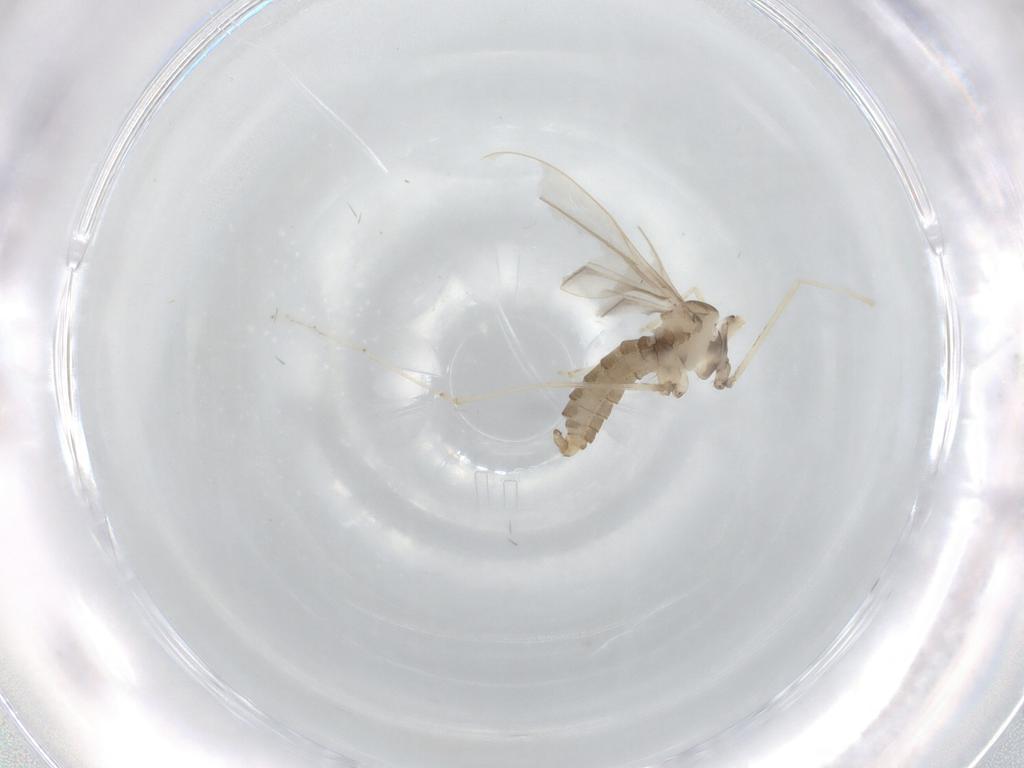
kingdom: Animalia
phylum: Arthropoda
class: Insecta
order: Diptera
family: Cecidomyiidae
